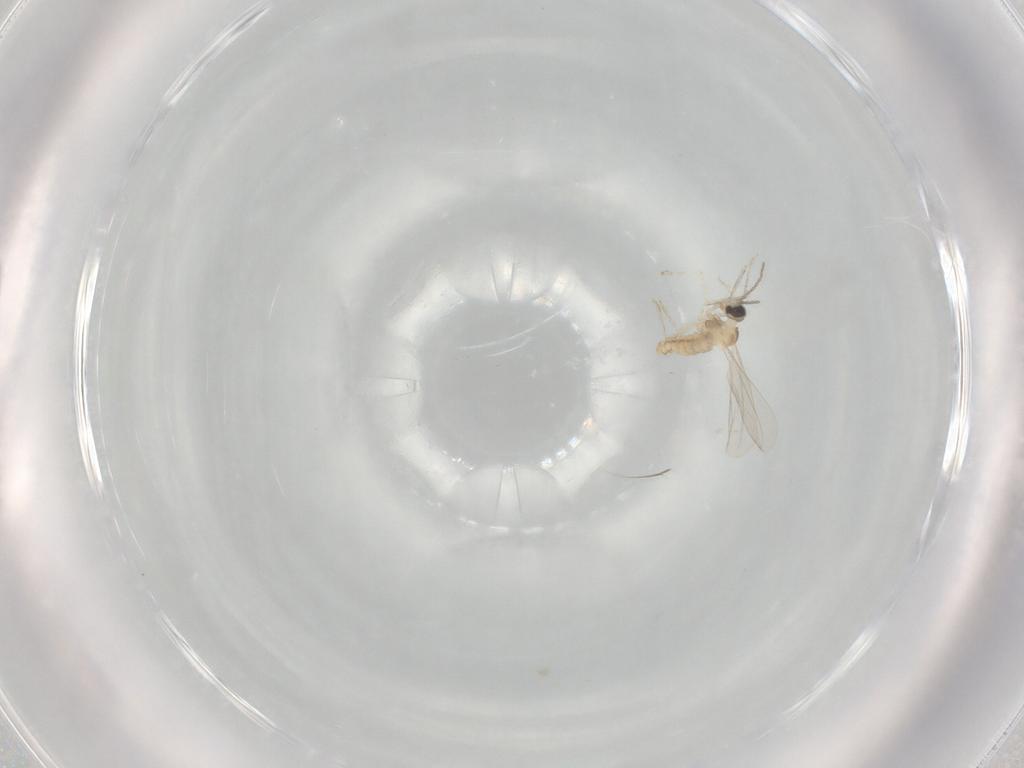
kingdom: Animalia
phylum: Arthropoda
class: Insecta
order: Diptera
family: Cecidomyiidae
